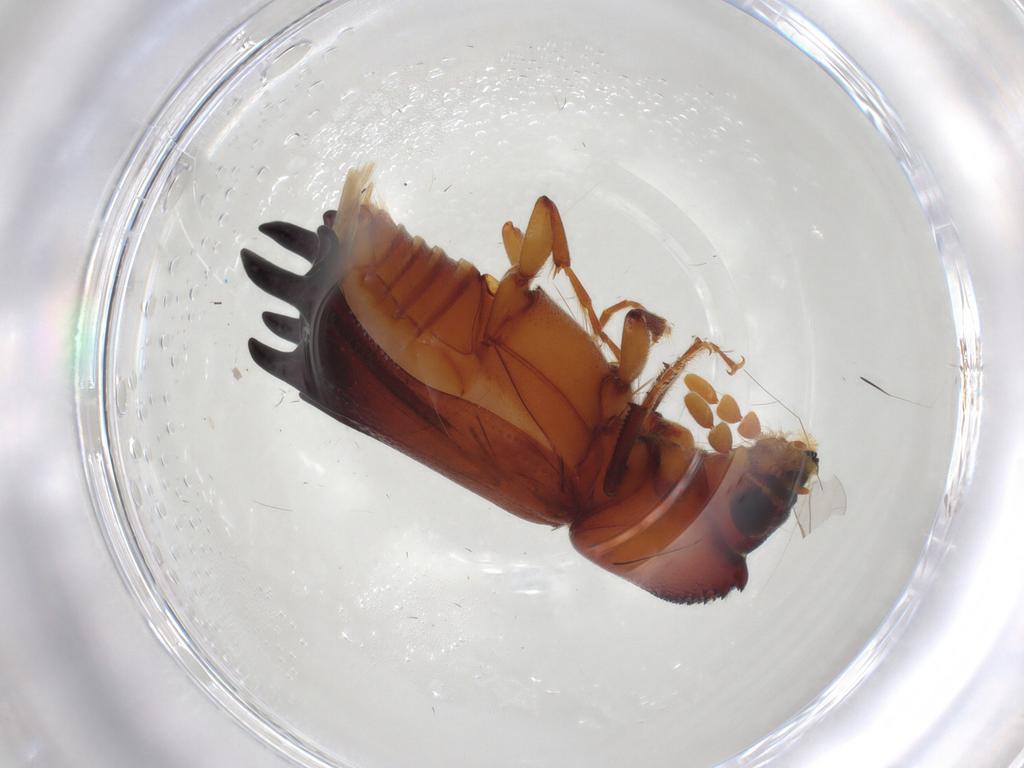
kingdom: Animalia
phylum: Arthropoda
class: Insecta
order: Coleoptera
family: Bostrichidae
